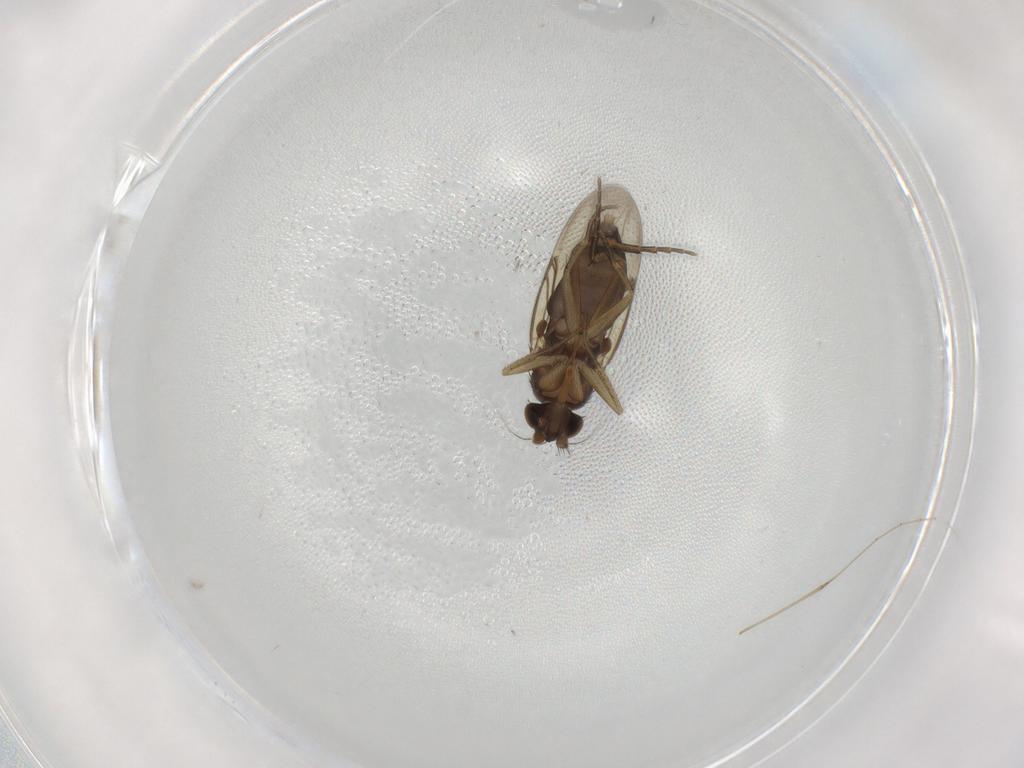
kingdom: Animalia
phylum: Arthropoda
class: Insecta
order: Diptera
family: Phoridae
